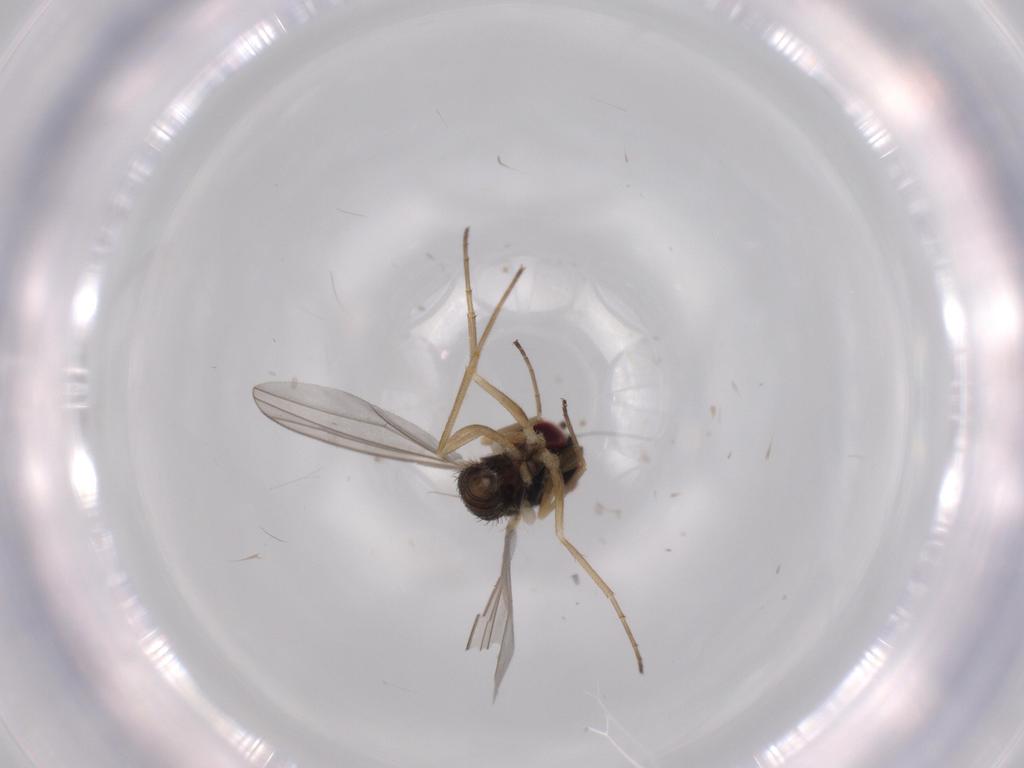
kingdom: Animalia
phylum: Arthropoda
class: Insecta
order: Diptera
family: Dolichopodidae
